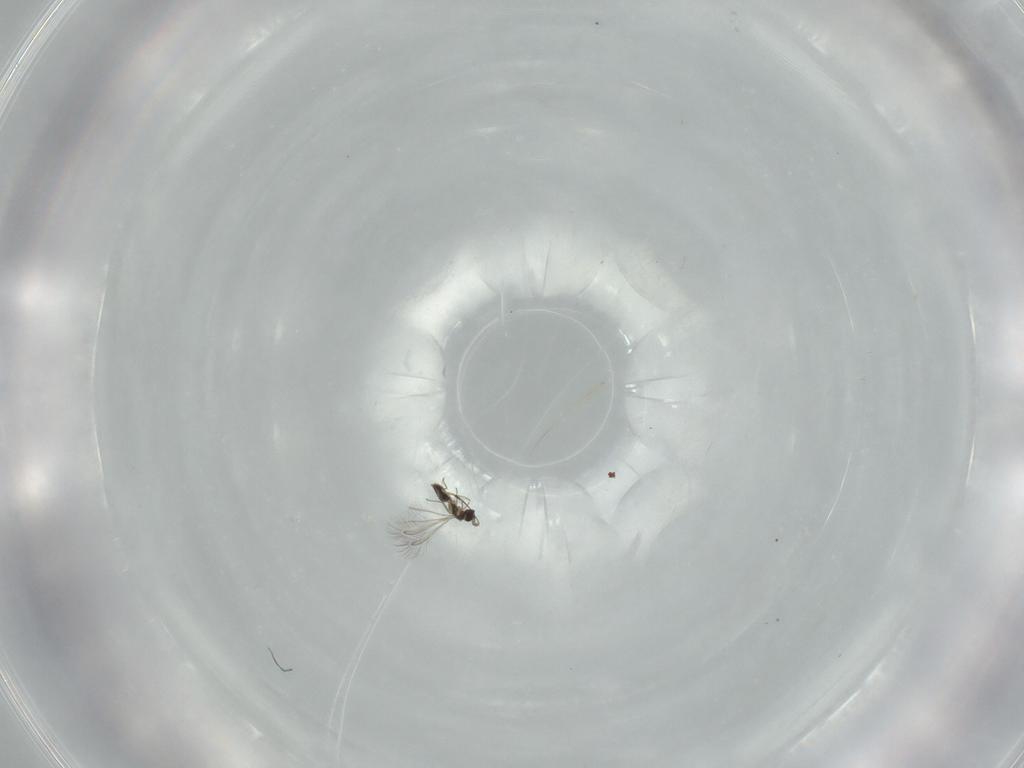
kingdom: Animalia
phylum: Arthropoda
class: Insecta
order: Hymenoptera
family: Mymaridae
